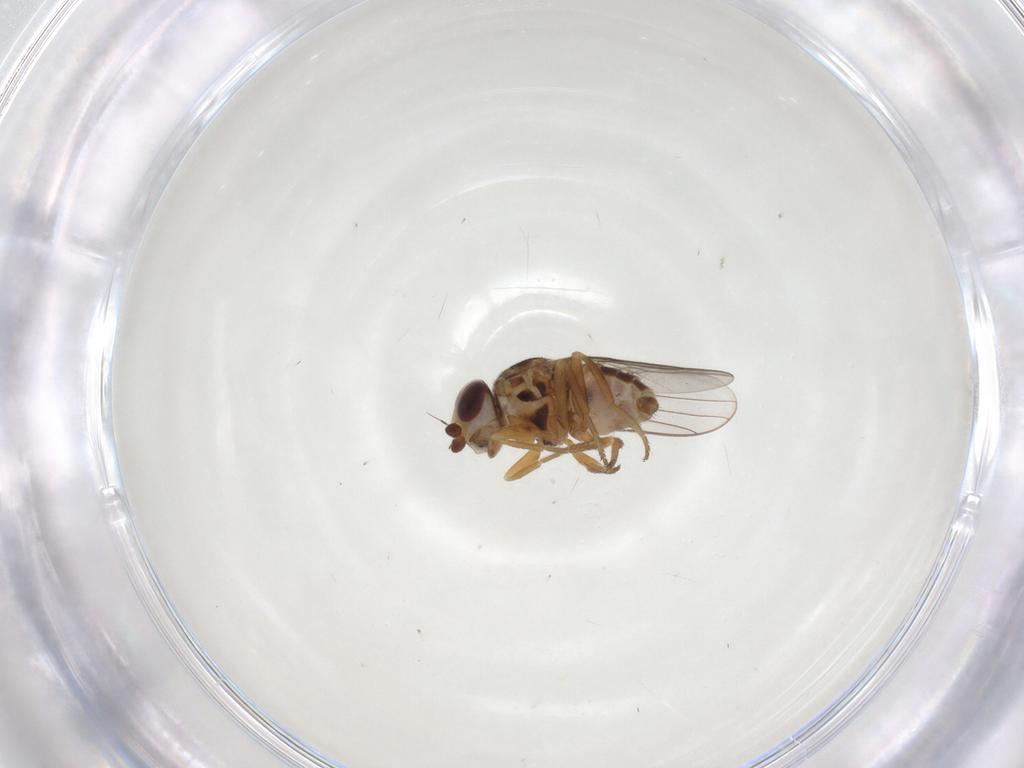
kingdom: Animalia
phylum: Arthropoda
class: Insecta
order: Diptera
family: Chloropidae
